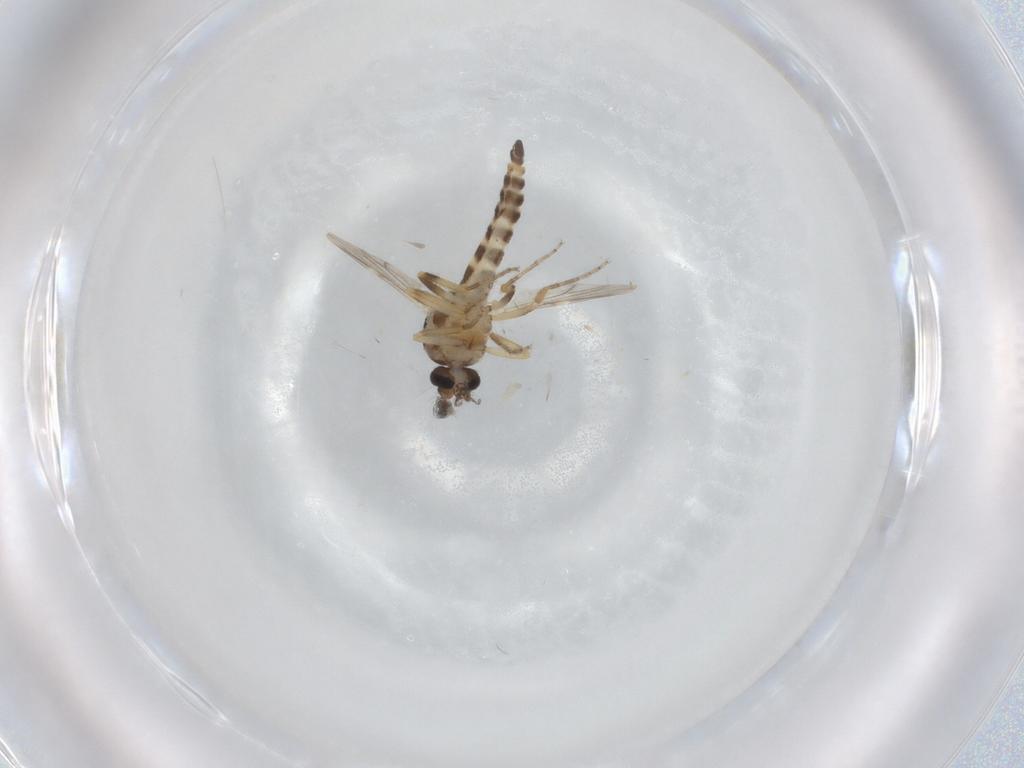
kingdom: Animalia
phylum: Arthropoda
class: Insecta
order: Diptera
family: Ceratopogonidae
